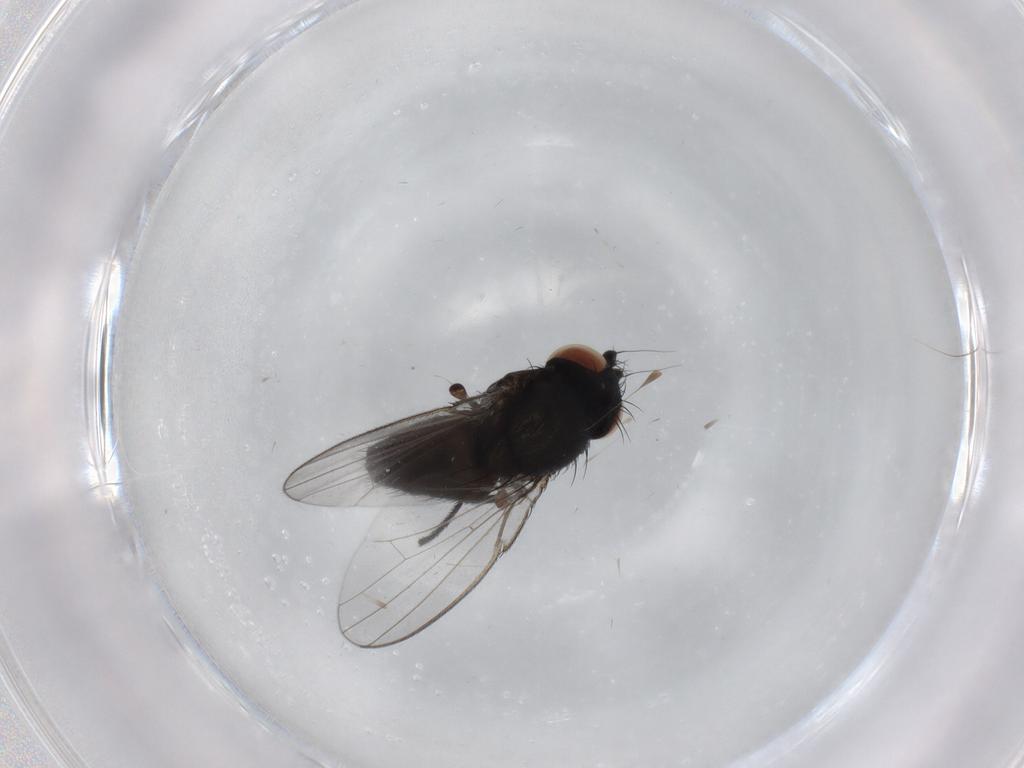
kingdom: Animalia
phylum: Arthropoda
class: Insecta
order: Diptera
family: Milichiidae
